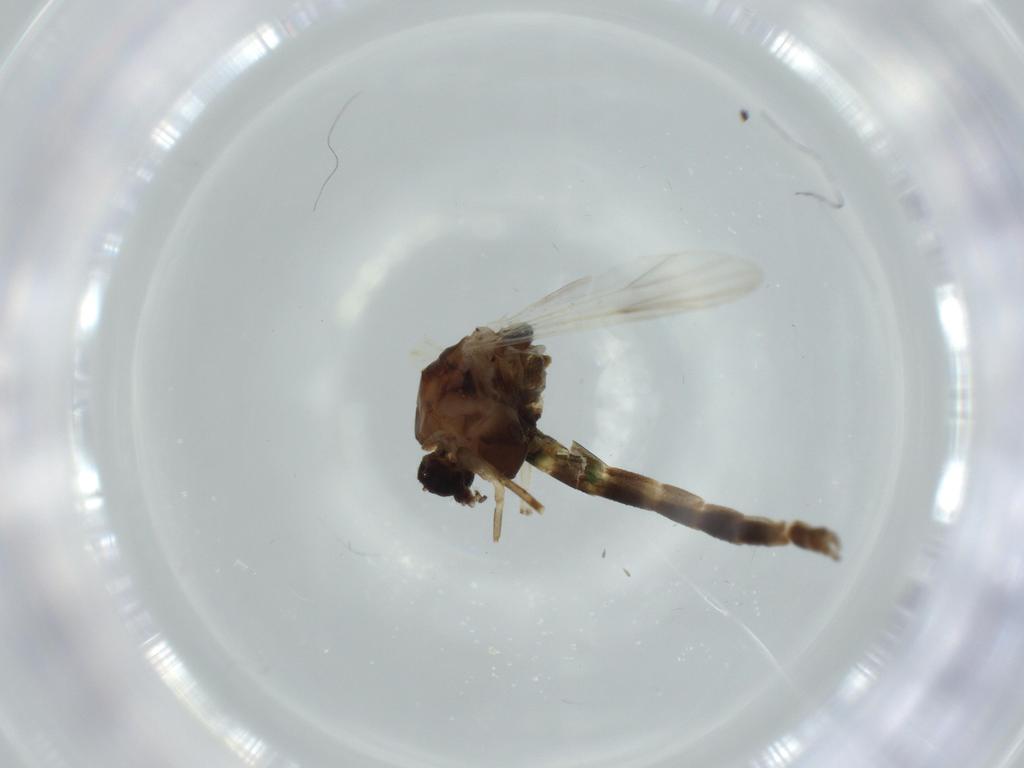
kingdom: Animalia
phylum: Arthropoda
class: Insecta
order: Diptera
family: Chironomidae
